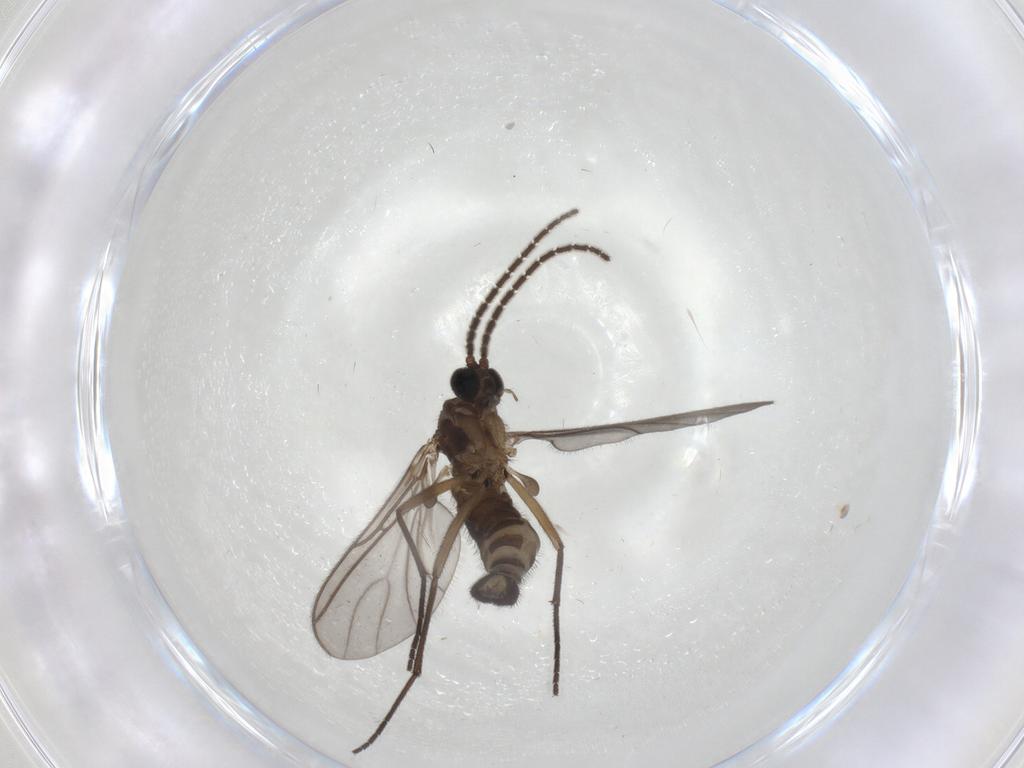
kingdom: Animalia
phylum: Arthropoda
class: Insecta
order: Diptera
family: Sciaridae
